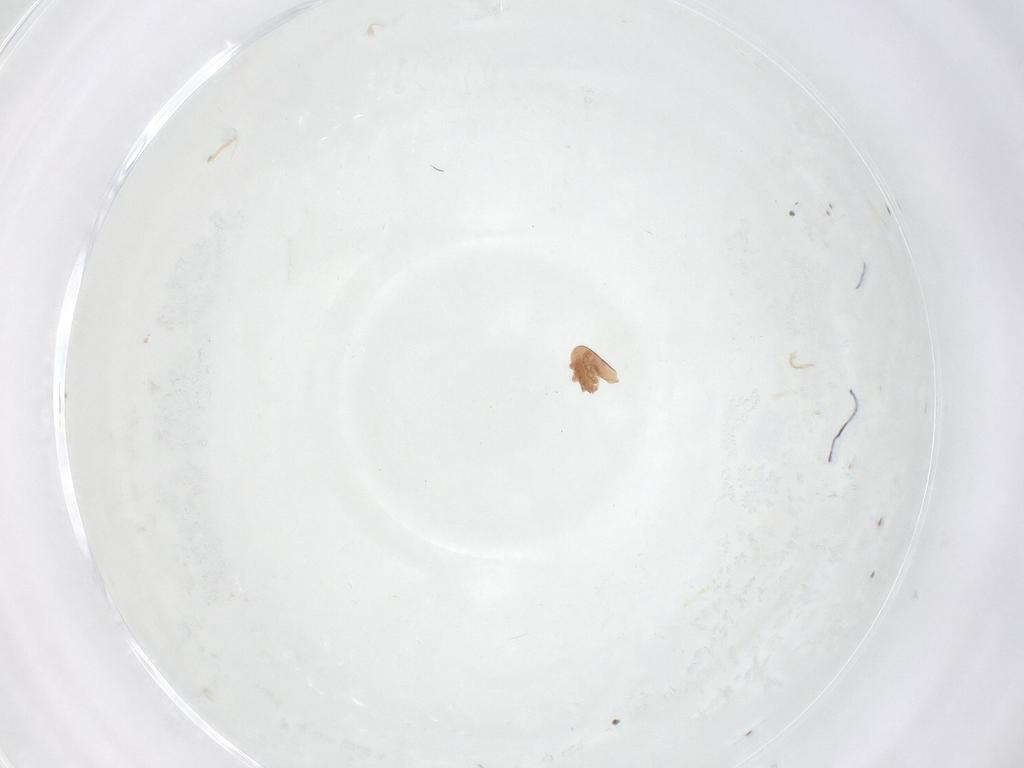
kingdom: Animalia
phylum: Arthropoda
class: Arachnida
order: Mesostigmata
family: Trematuridae
